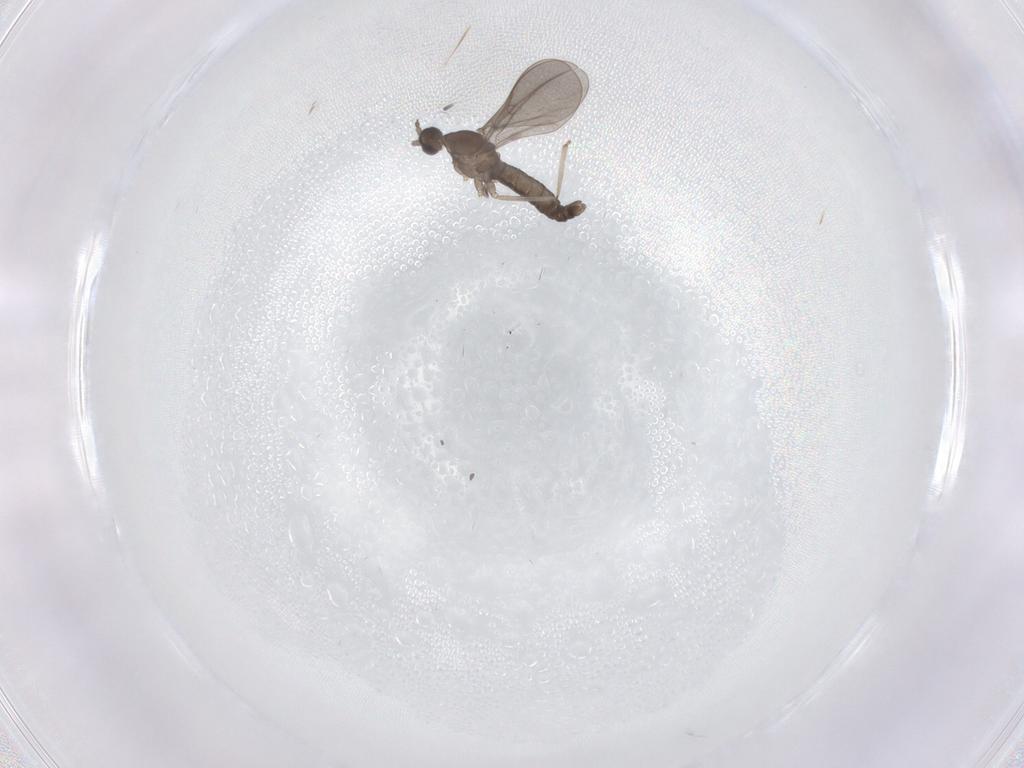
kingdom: Animalia
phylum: Arthropoda
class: Insecta
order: Diptera
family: Cecidomyiidae
